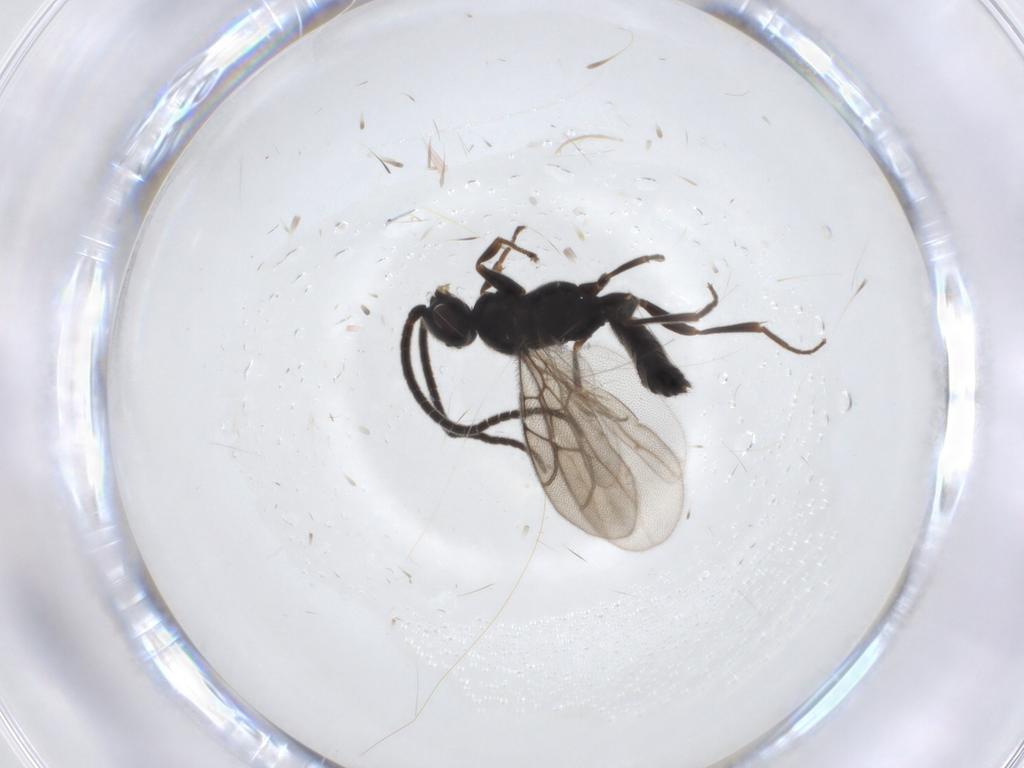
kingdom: Animalia
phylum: Arthropoda
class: Insecta
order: Hymenoptera
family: Sclerogibbidae
